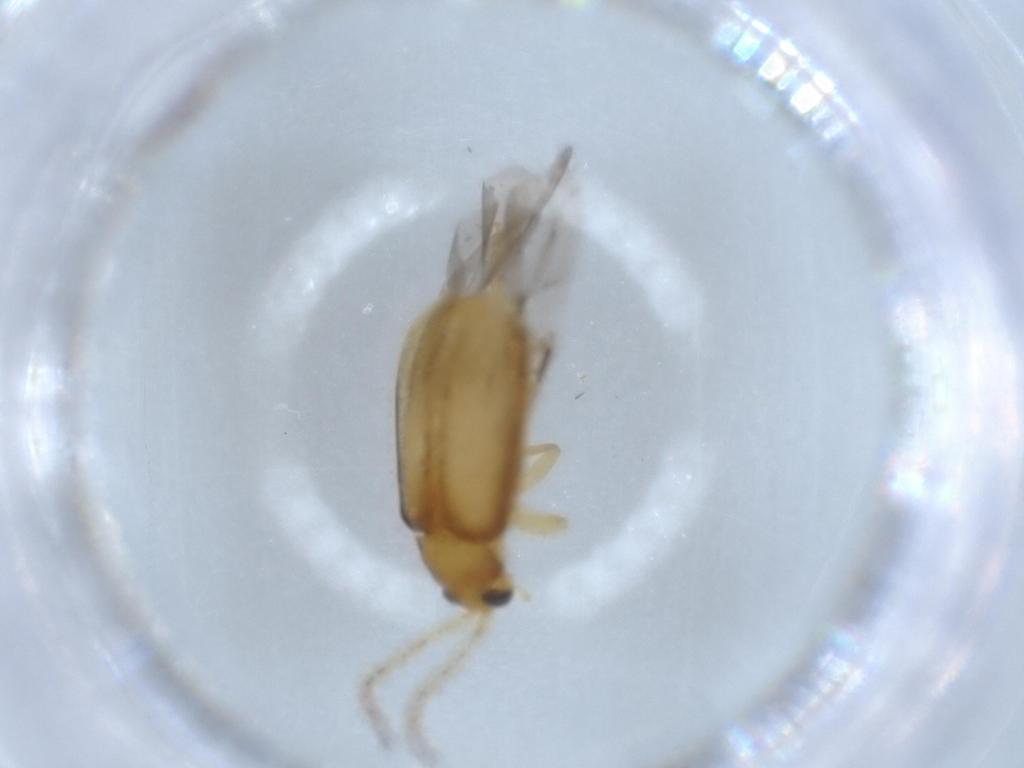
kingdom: Animalia
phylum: Arthropoda
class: Insecta
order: Coleoptera
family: Chrysomelidae
